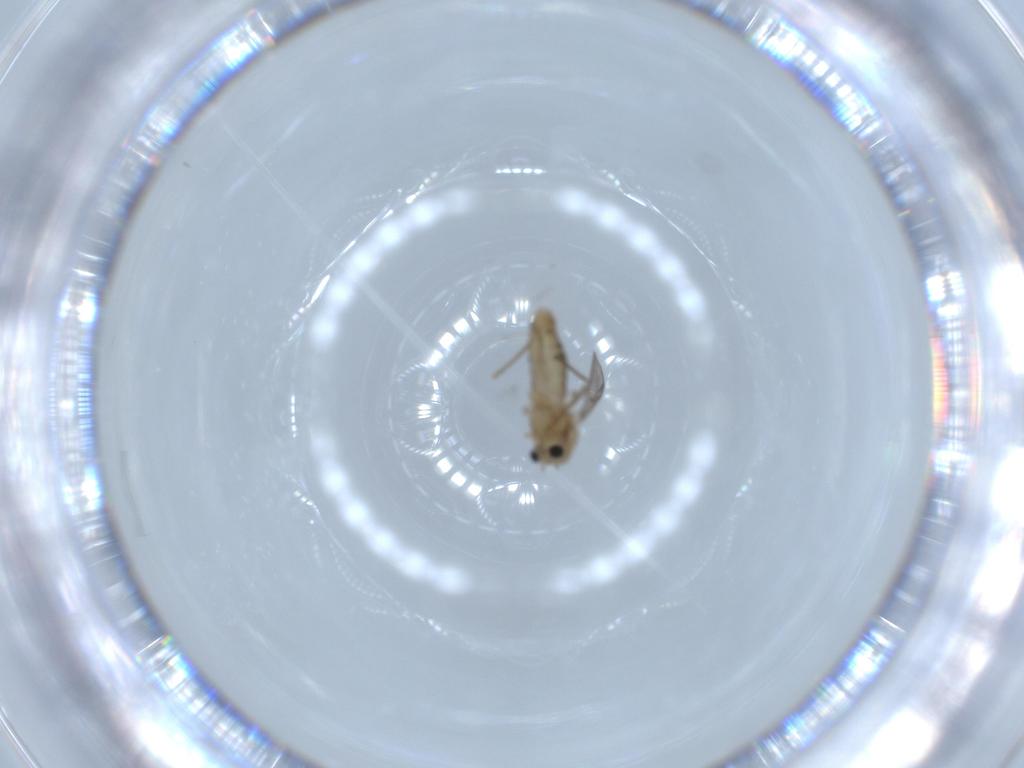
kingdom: Animalia
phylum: Arthropoda
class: Insecta
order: Diptera
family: Chironomidae
